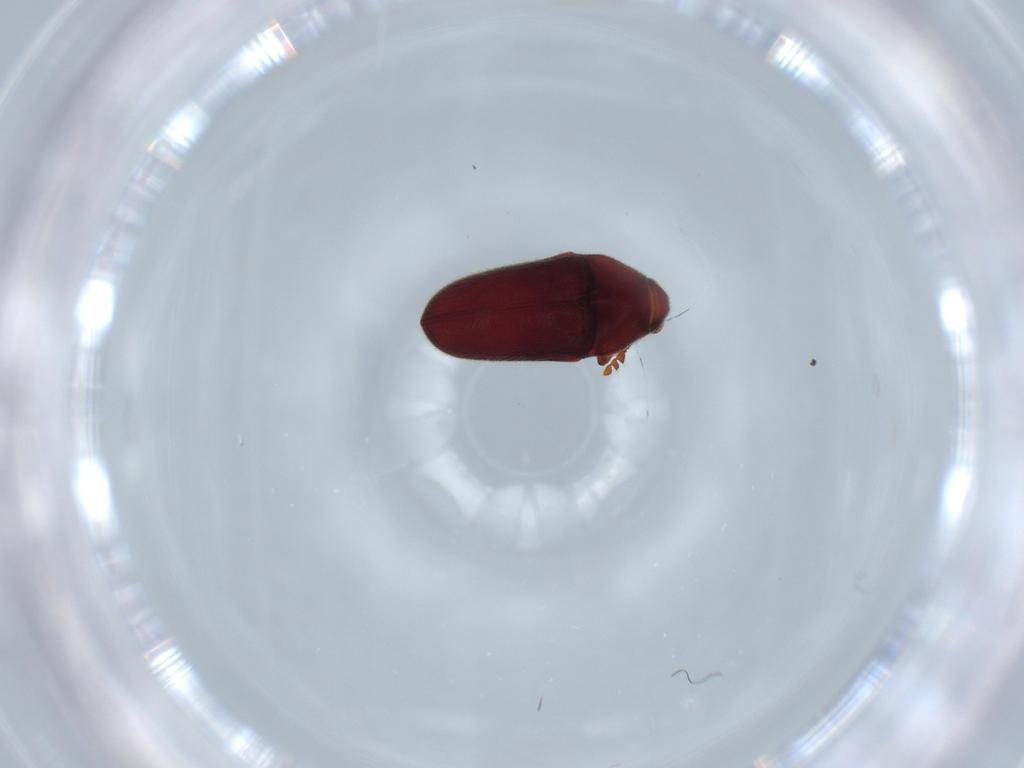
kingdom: Animalia
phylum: Arthropoda
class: Insecta
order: Coleoptera
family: Throscidae
